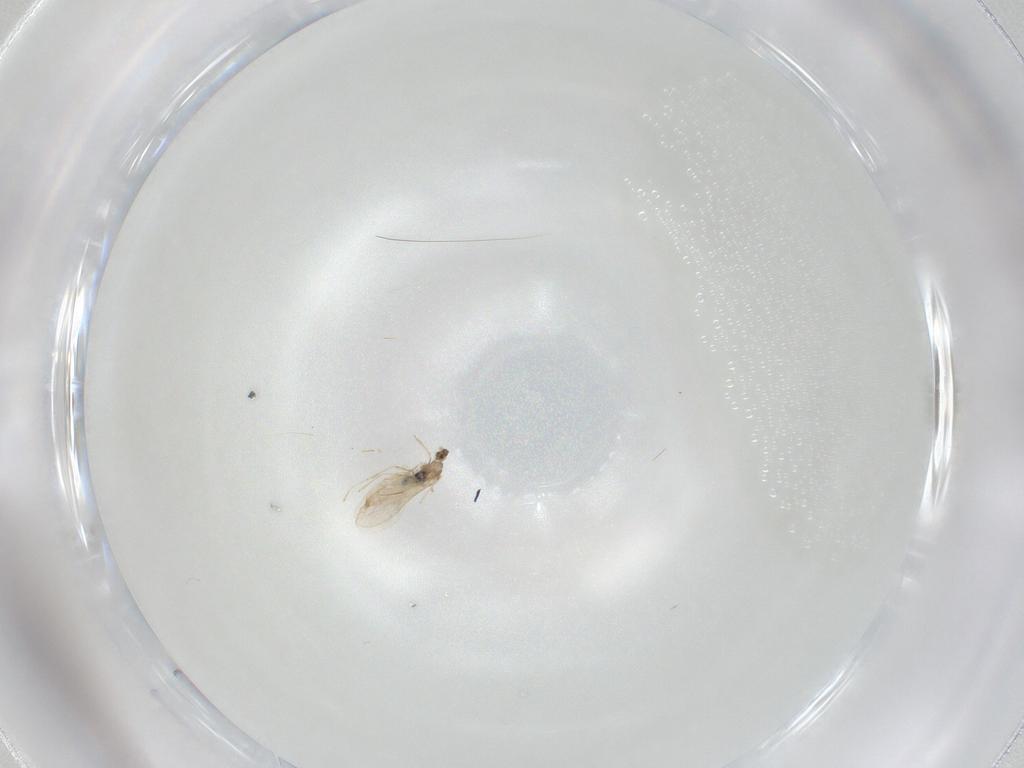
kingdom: Animalia
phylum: Arthropoda
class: Insecta
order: Diptera
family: Cecidomyiidae
